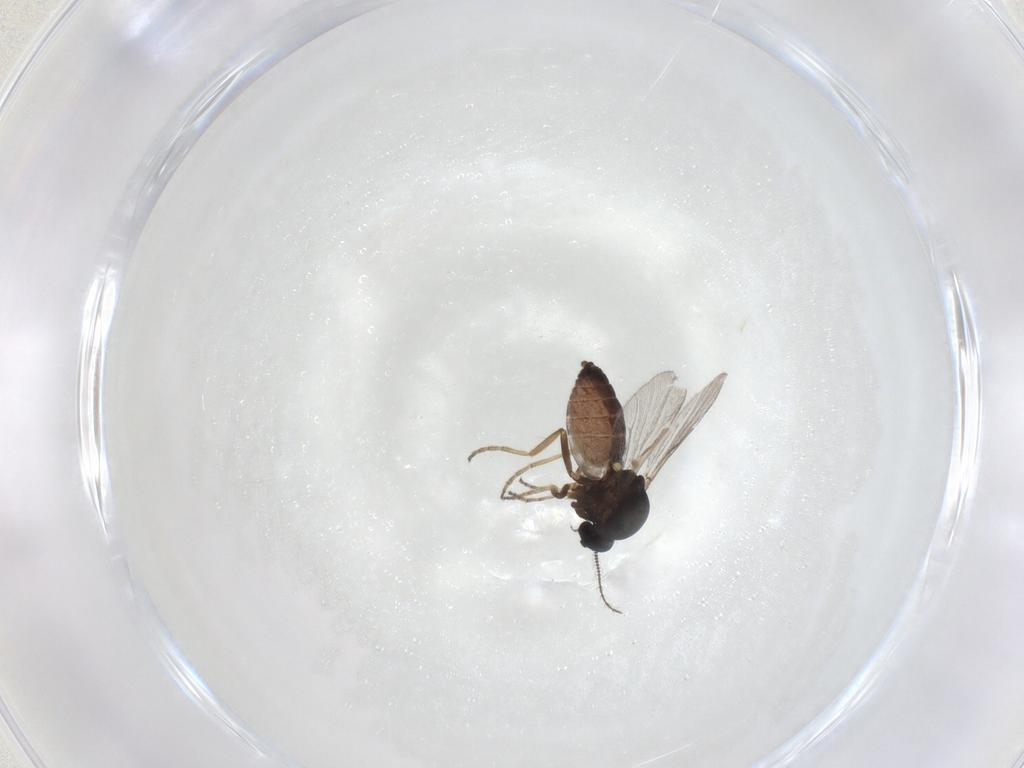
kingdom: Animalia
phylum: Arthropoda
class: Insecta
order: Diptera
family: Ceratopogonidae
